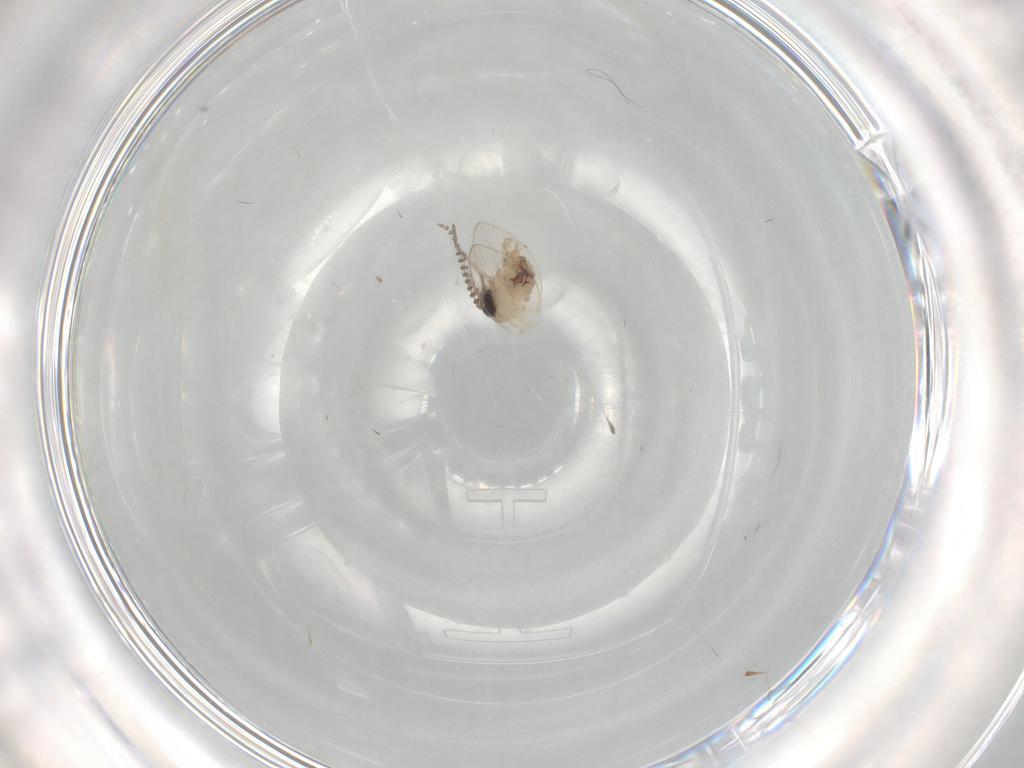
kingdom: Animalia
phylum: Arthropoda
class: Insecta
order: Diptera
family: Psychodidae
